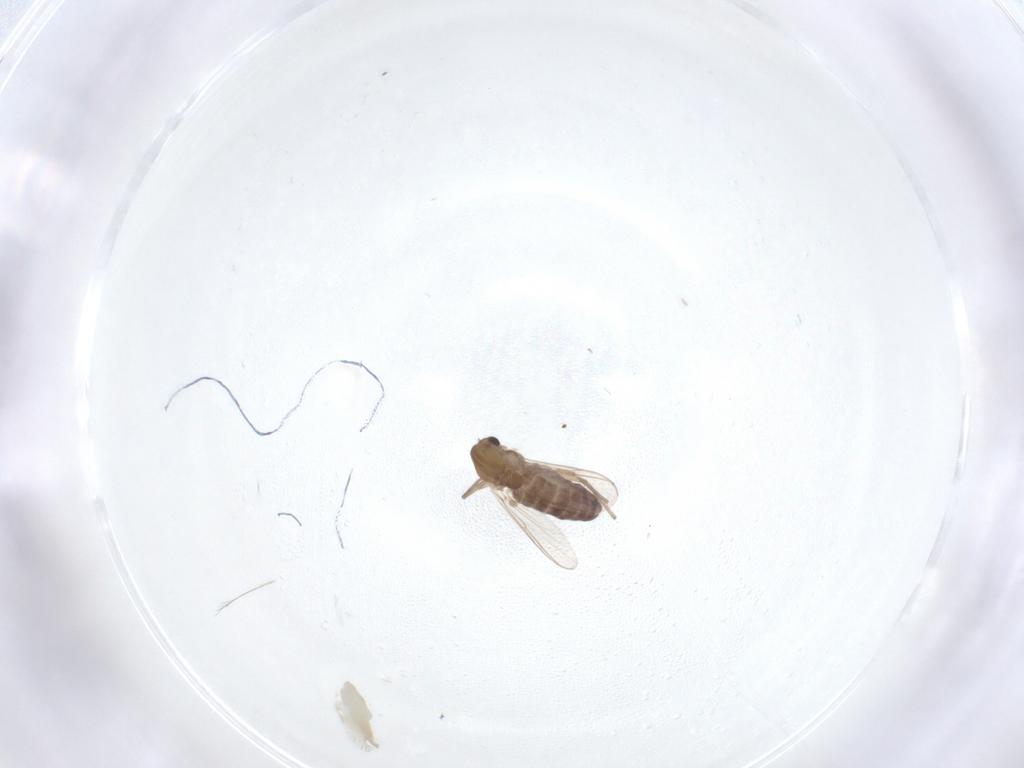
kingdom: Animalia
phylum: Arthropoda
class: Insecta
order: Diptera
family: Chironomidae
